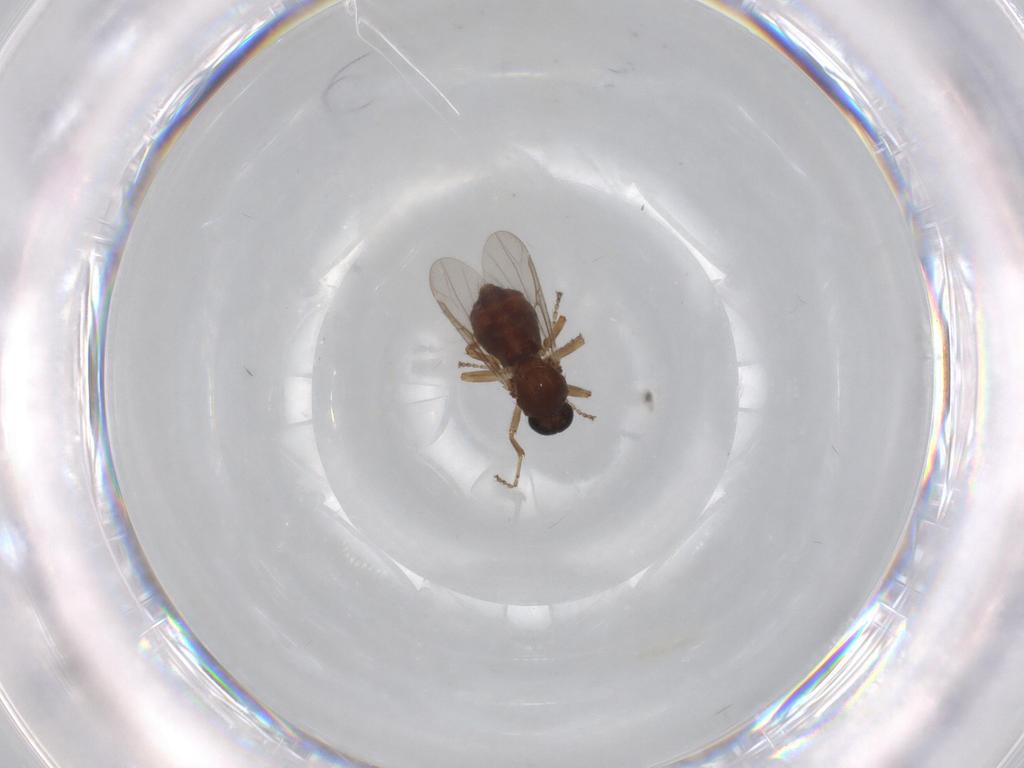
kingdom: Animalia
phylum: Arthropoda
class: Insecta
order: Diptera
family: Ceratopogonidae
